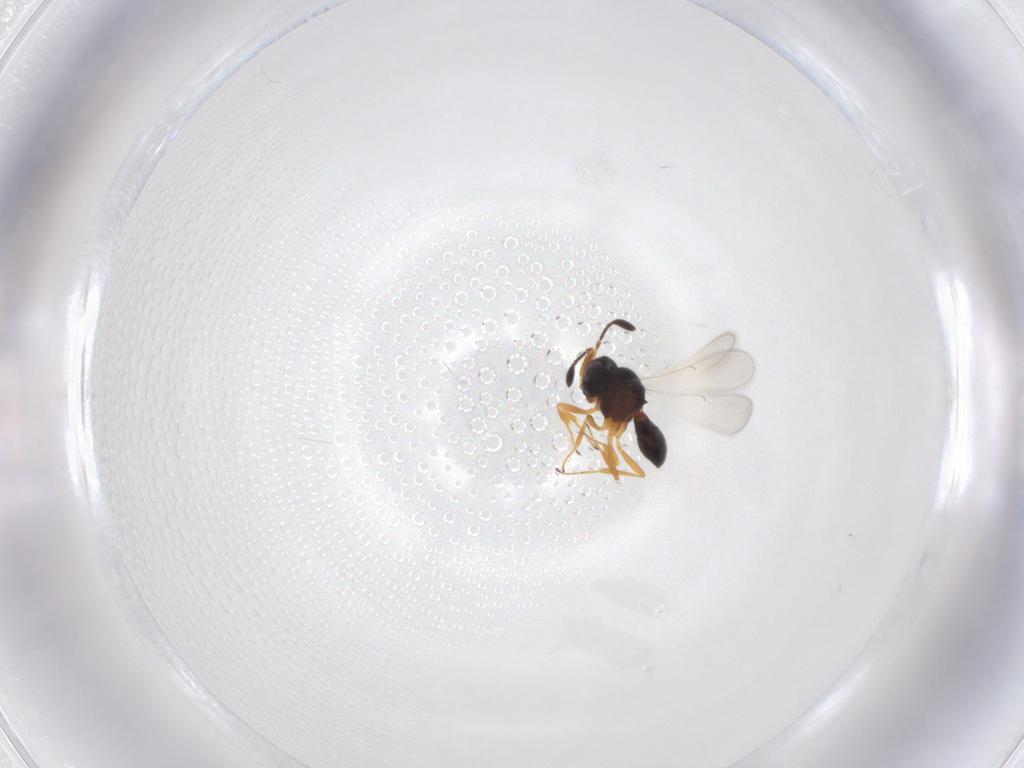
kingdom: Animalia
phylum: Arthropoda
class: Insecta
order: Hymenoptera
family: Scelionidae
